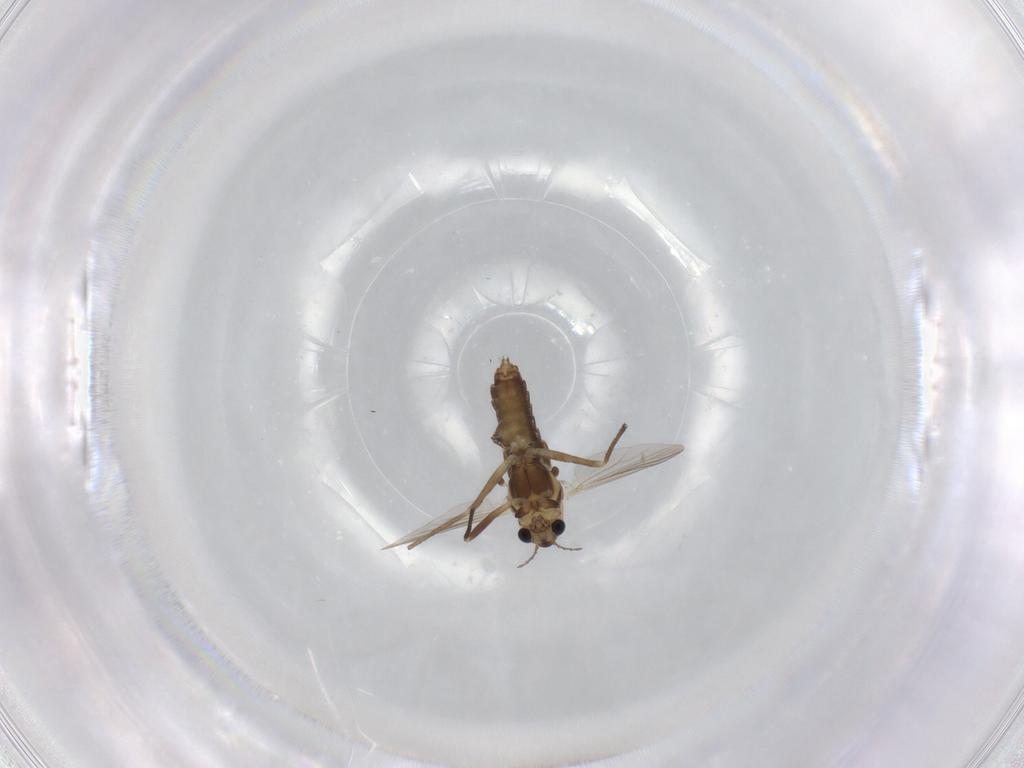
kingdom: Animalia
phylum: Arthropoda
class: Insecta
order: Diptera
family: Chironomidae
